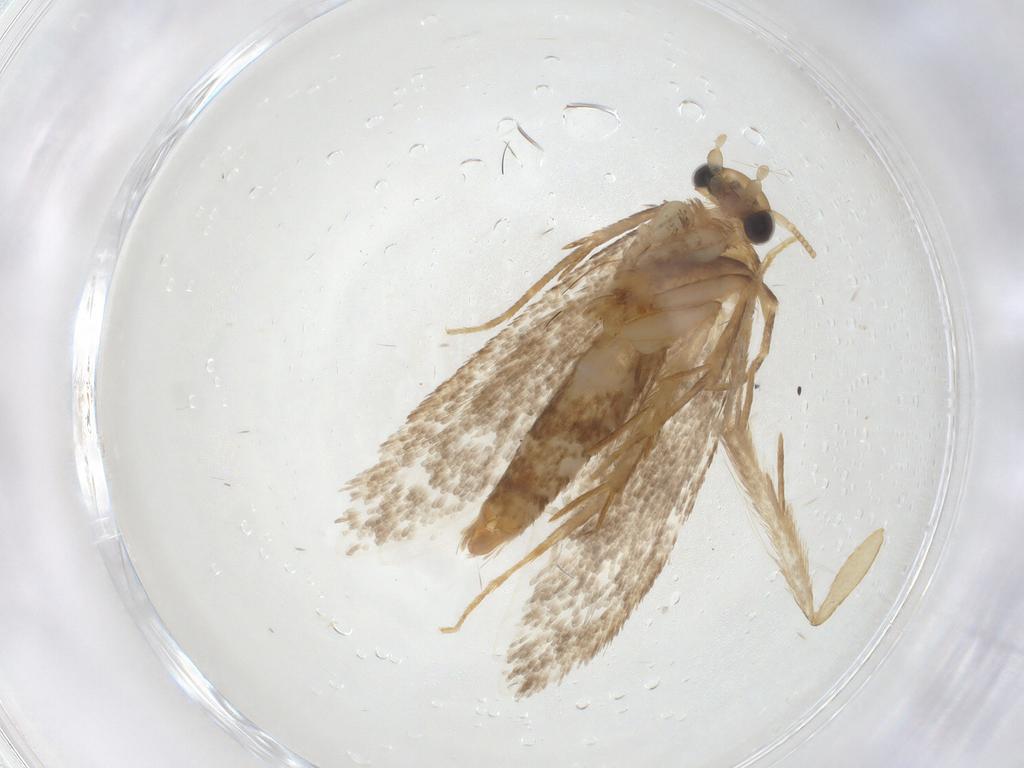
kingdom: Animalia
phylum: Arthropoda
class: Insecta
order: Lepidoptera
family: Tineidae
